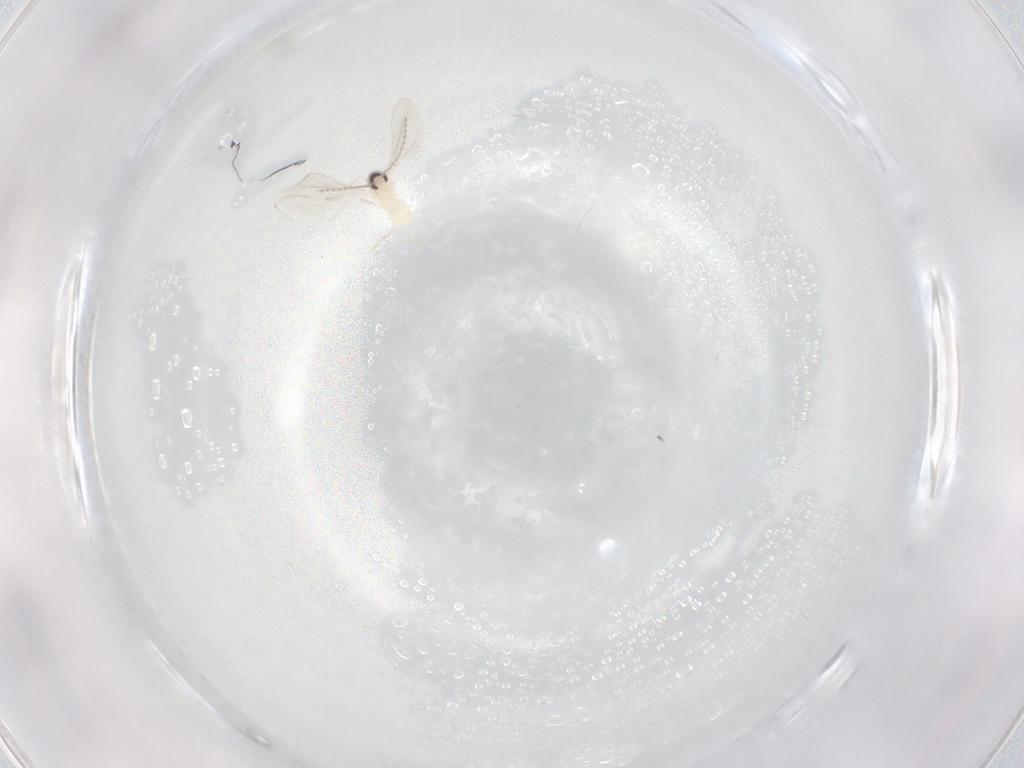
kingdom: Animalia
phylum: Arthropoda
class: Insecta
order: Diptera
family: Cecidomyiidae
